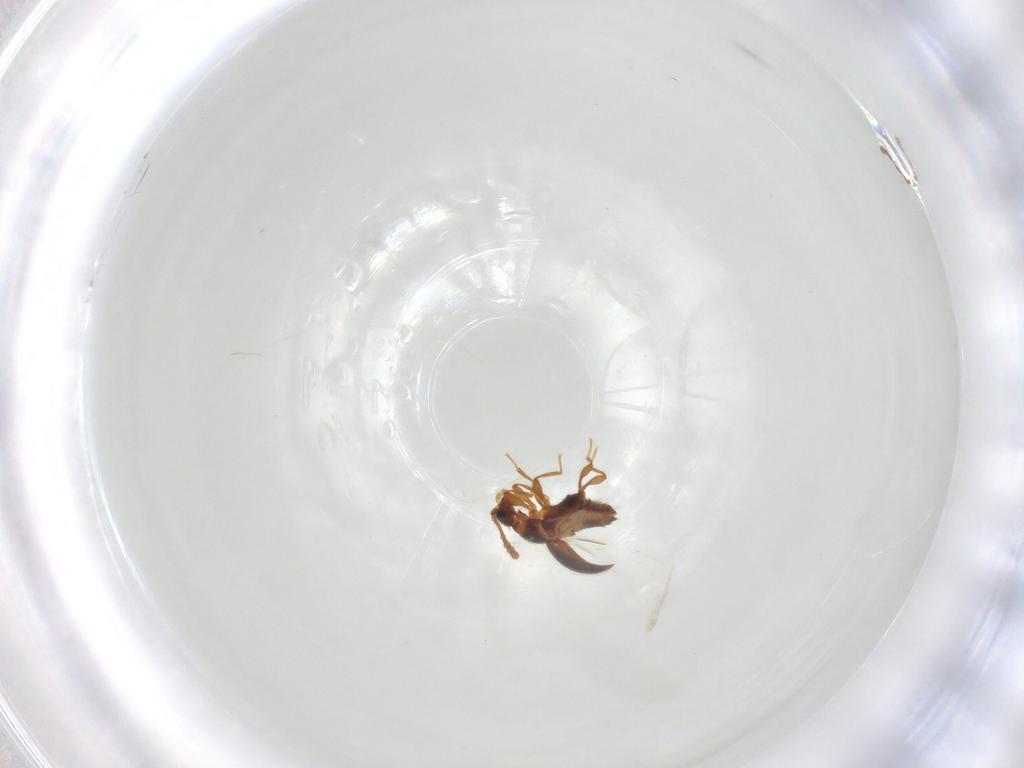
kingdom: Animalia
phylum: Arthropoda
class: Insecta
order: Coleoptera
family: Staphylinidae
